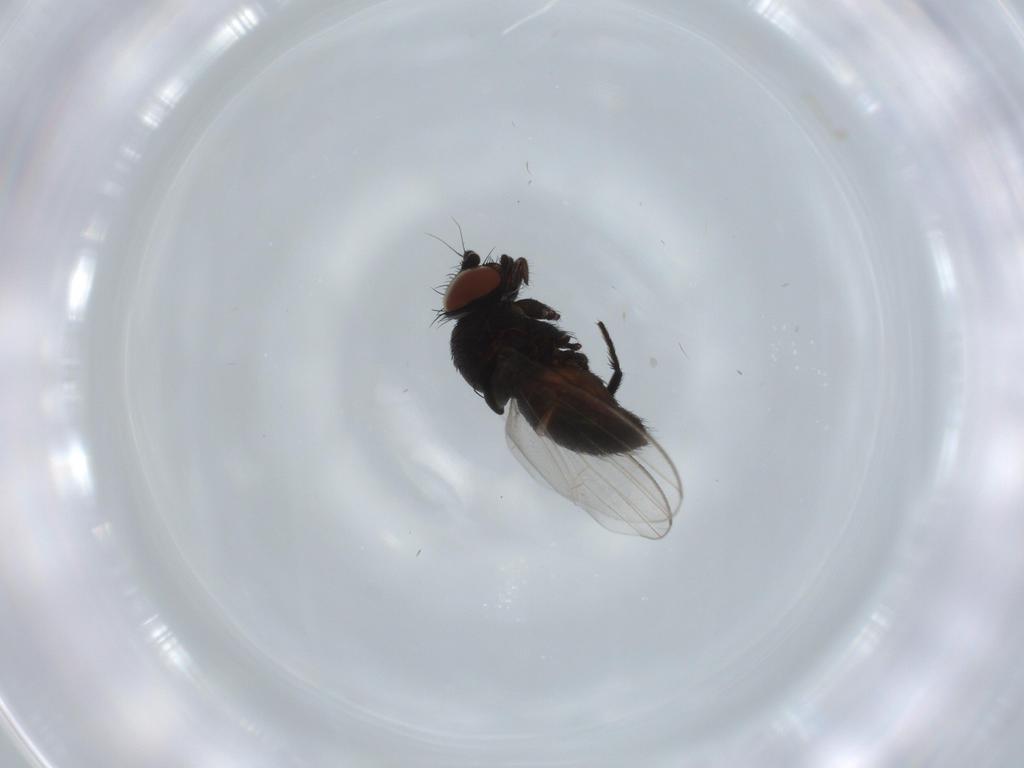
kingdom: Animalia
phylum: Arthropoda
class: Insecta
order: Diptera
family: Milichiidae
